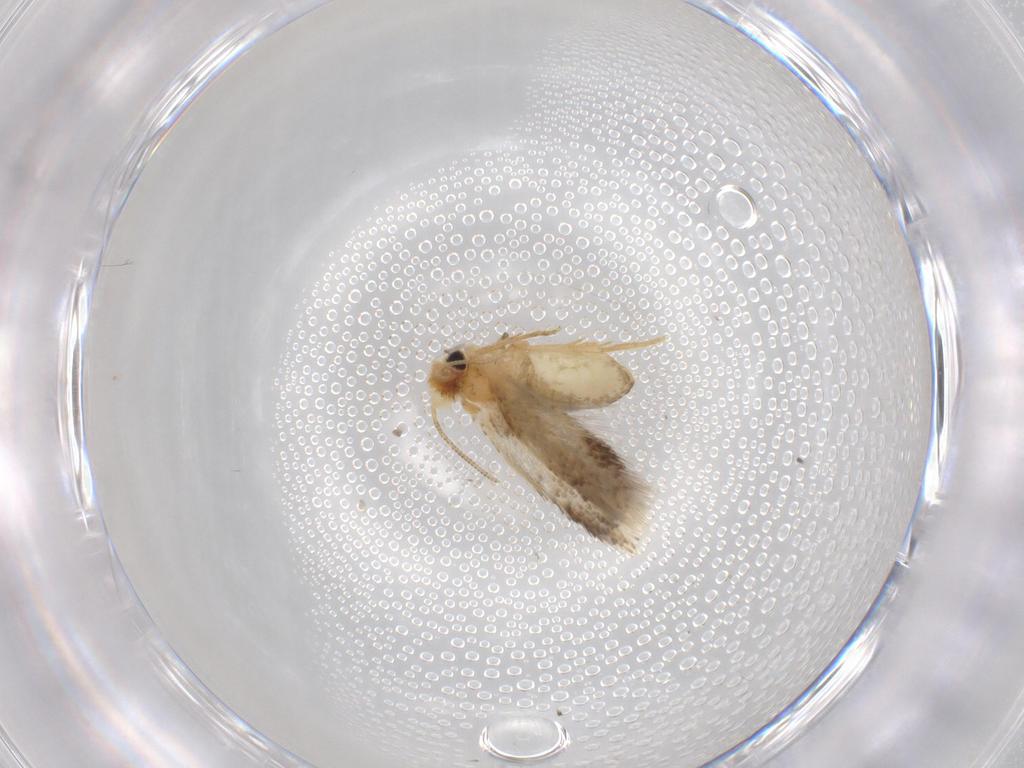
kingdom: Animalia
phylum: Arthropoda
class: Insecta
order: Lepidoptera
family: Nepticulidae
